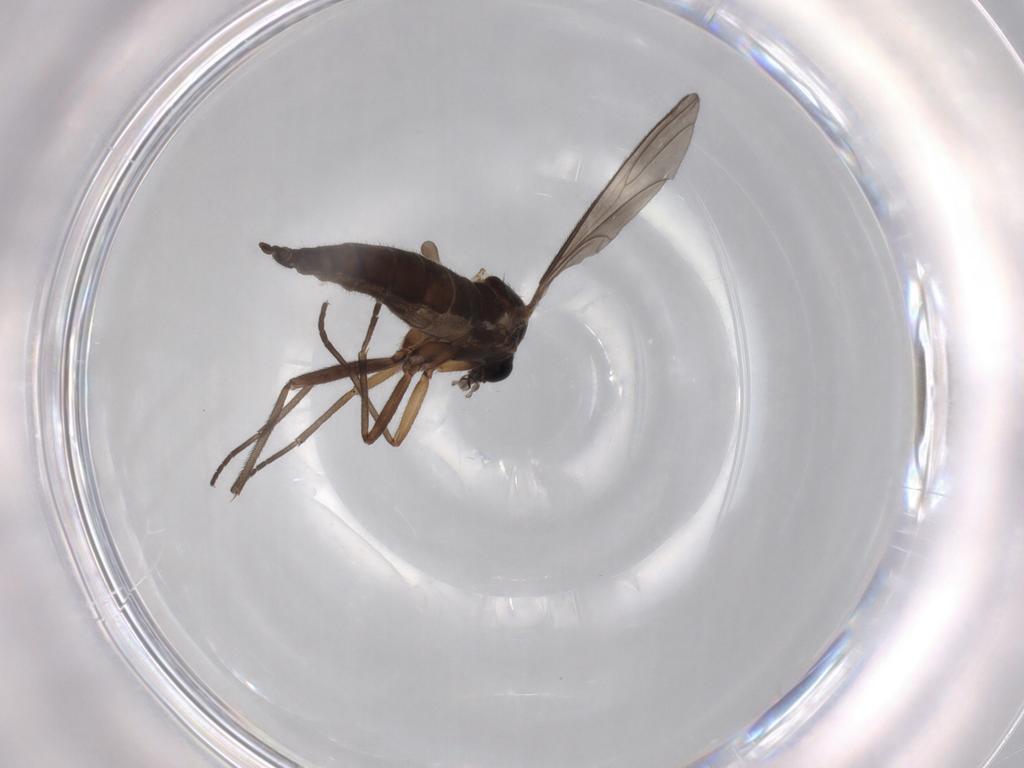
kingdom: Animalia
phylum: Arthropoda
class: Insecta
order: Diptera
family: Sciaridae
